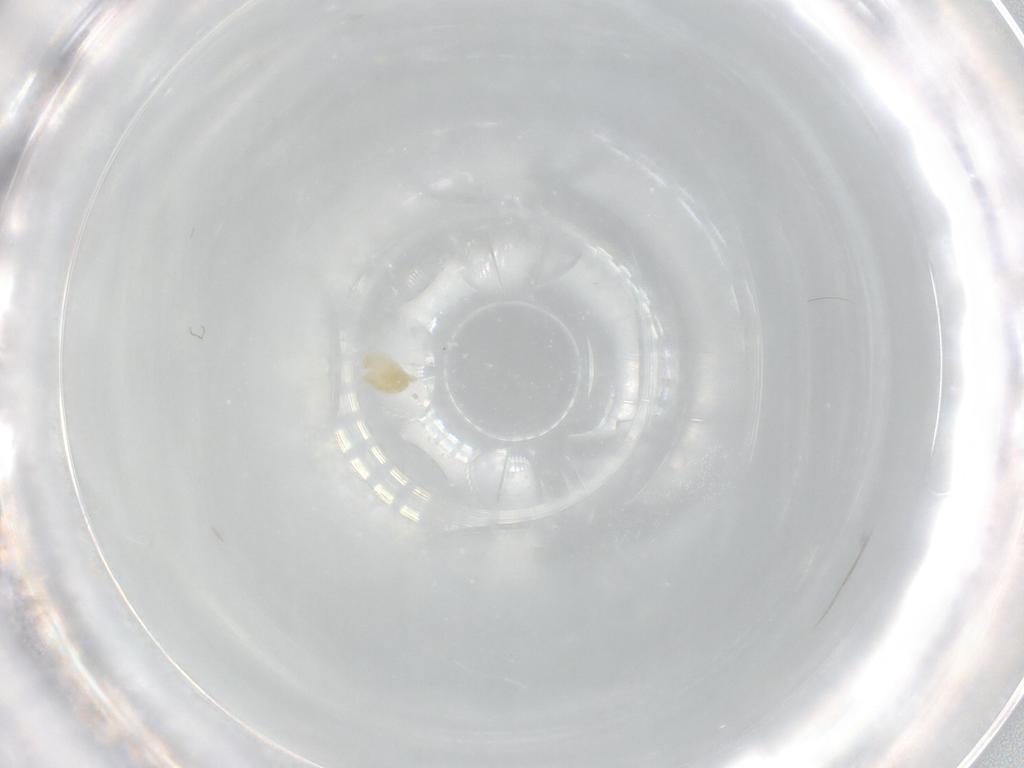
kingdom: Animalia
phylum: Arthropoda
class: Arachnida
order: Trombidiformes
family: Eupodidae
